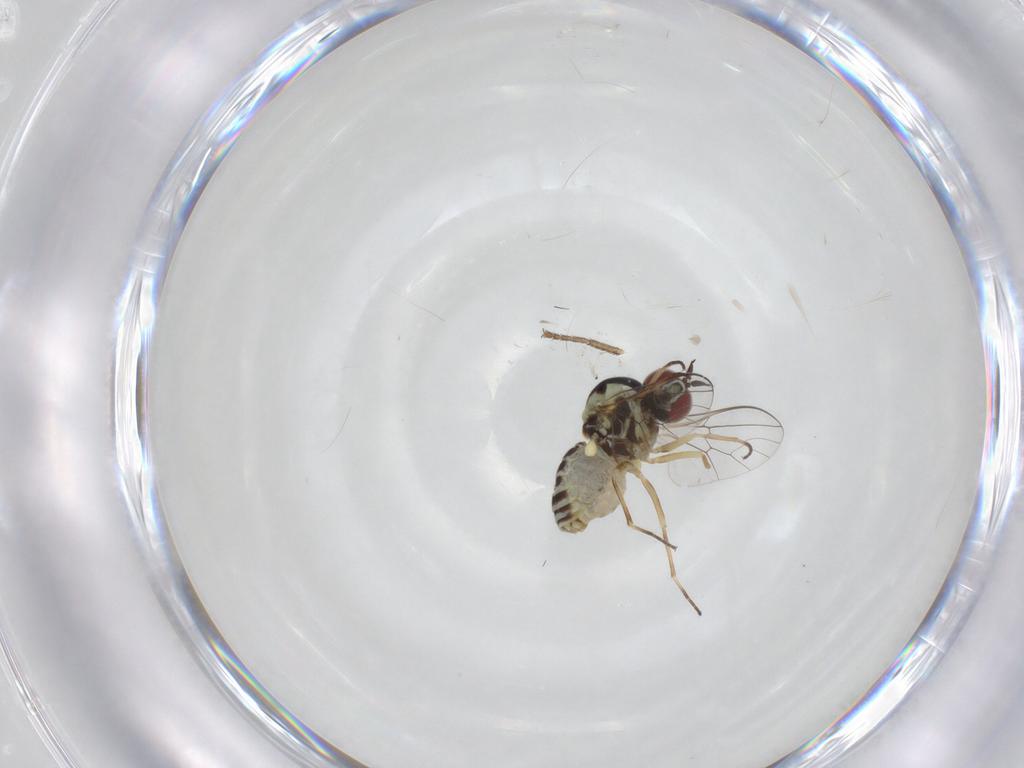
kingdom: Animalia
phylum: Arthropoda
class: Insecta
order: Diptera
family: Bombyliidae
